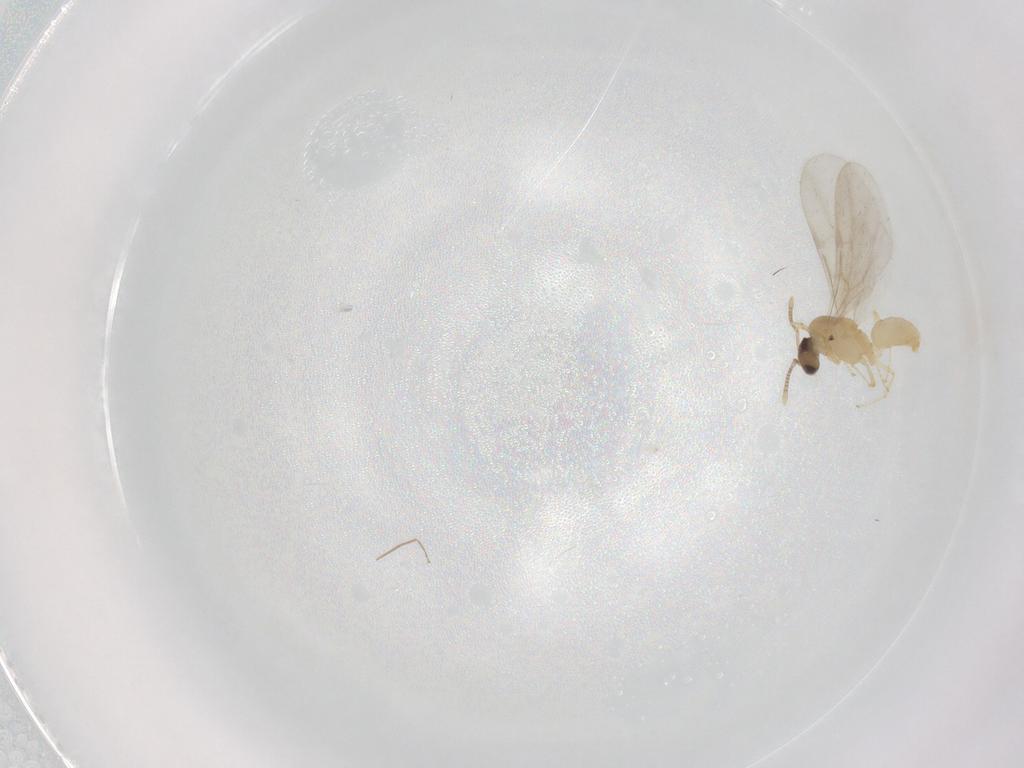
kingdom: Animalia
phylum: Arthropoda
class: Insecta
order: Hymenoptera
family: Formicidae
